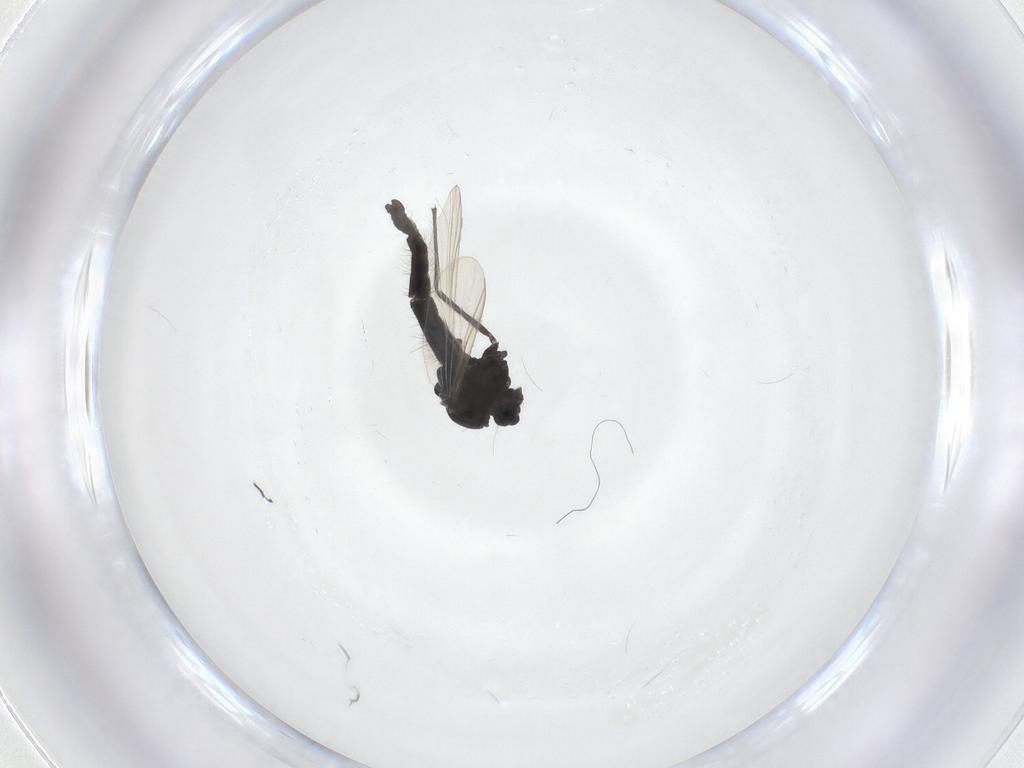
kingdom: Animalia
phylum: Arthropoda
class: Insecta
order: Diptera
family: Chironomidae
